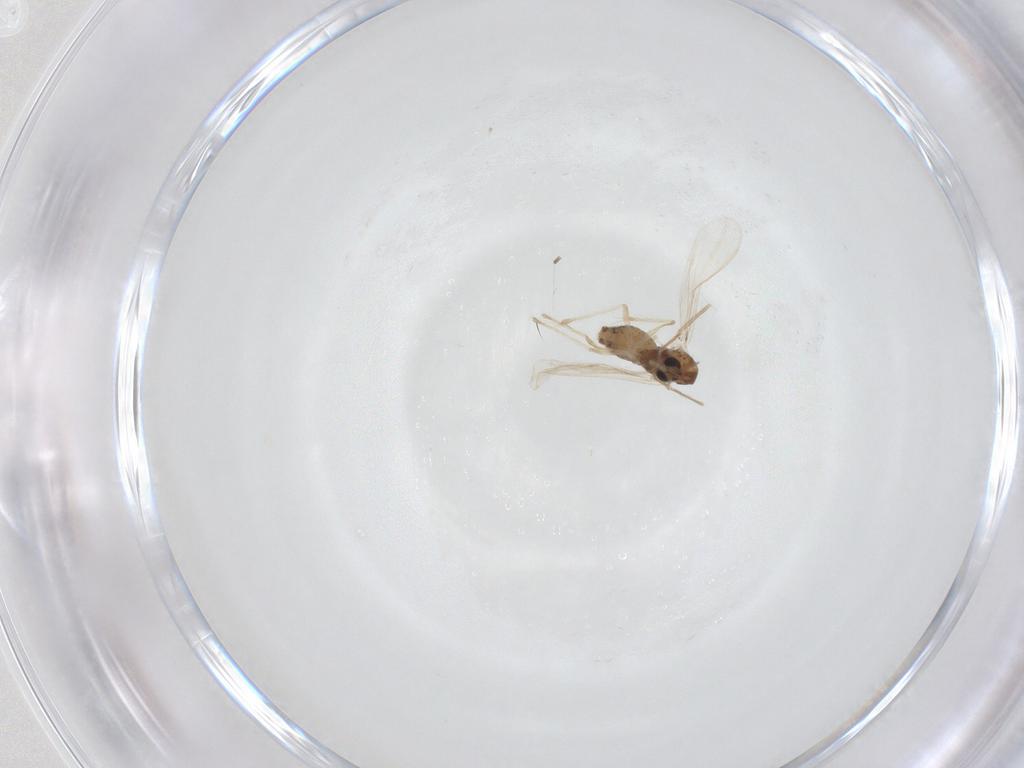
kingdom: Animalia
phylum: Arthropoda
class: Insecta
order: Diptera
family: Chironomidae
